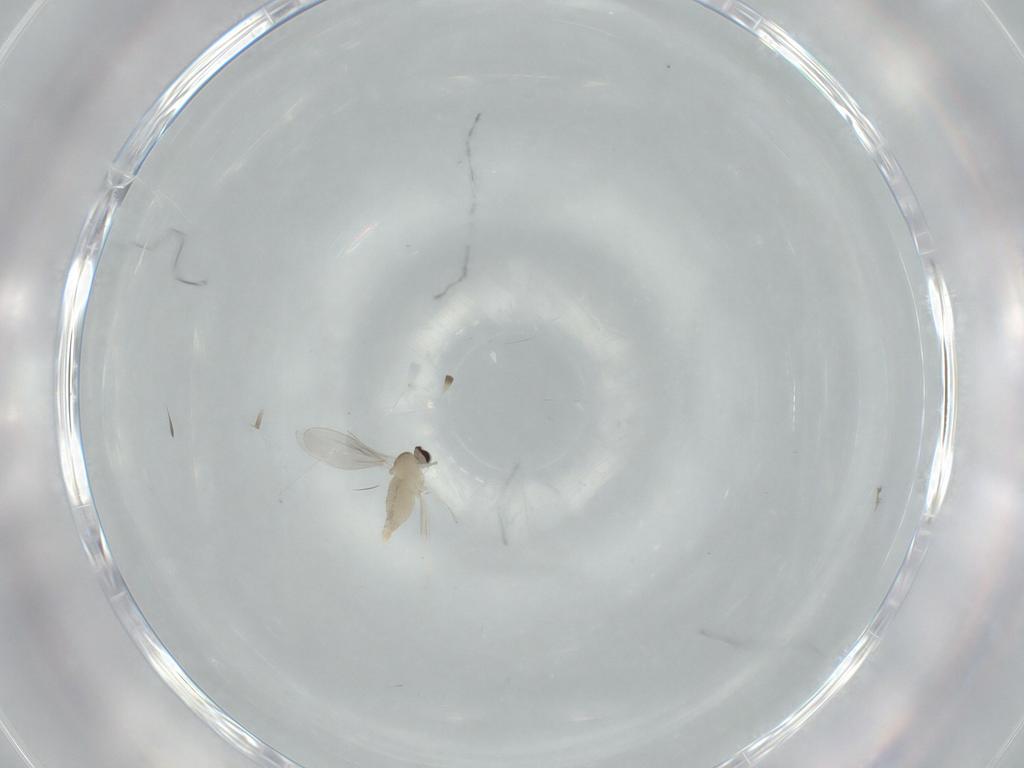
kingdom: Animalia
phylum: Arthropoda
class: Insecta
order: Diptera
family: Cecidomyiidae
